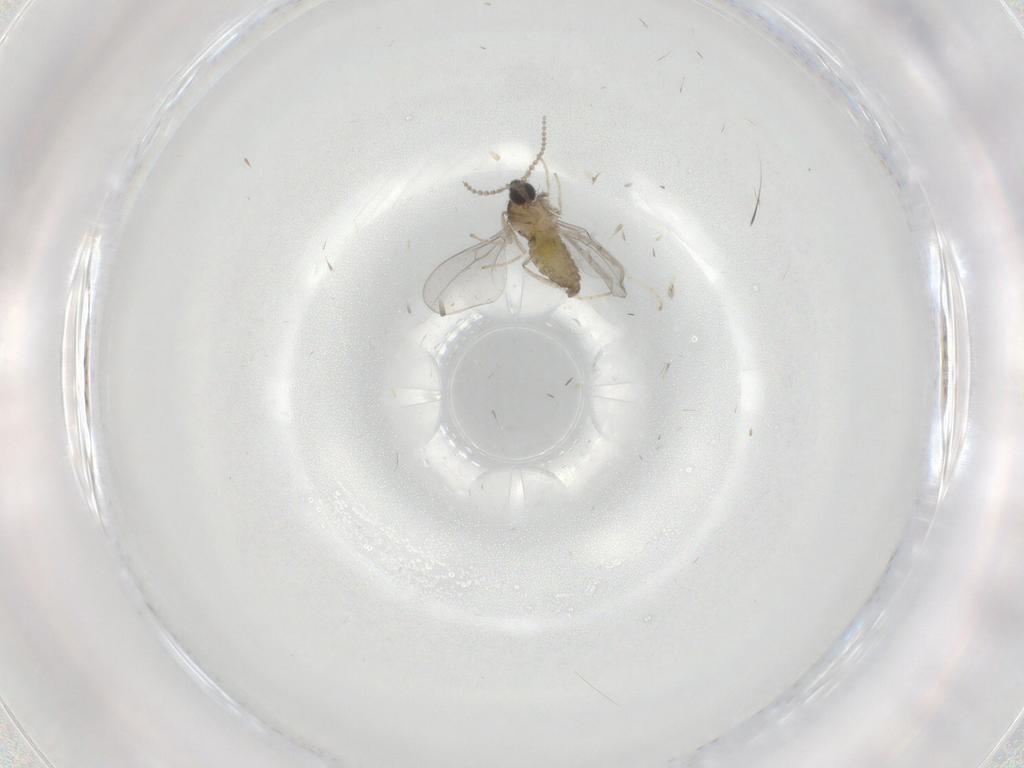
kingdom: Animalia
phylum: Arthropoda
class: Insecta
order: Diptera
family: Cecidomyiidae
